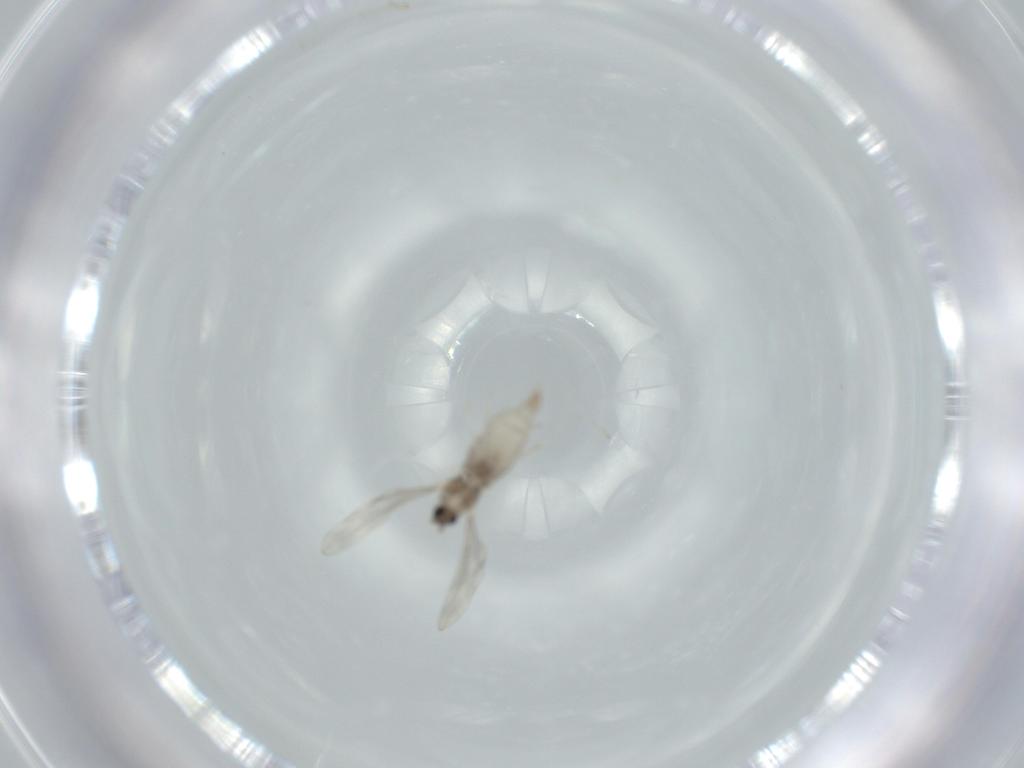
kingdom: Animalia
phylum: Arthropoda
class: Insecta
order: Diptera
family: Cecidomyiidae
